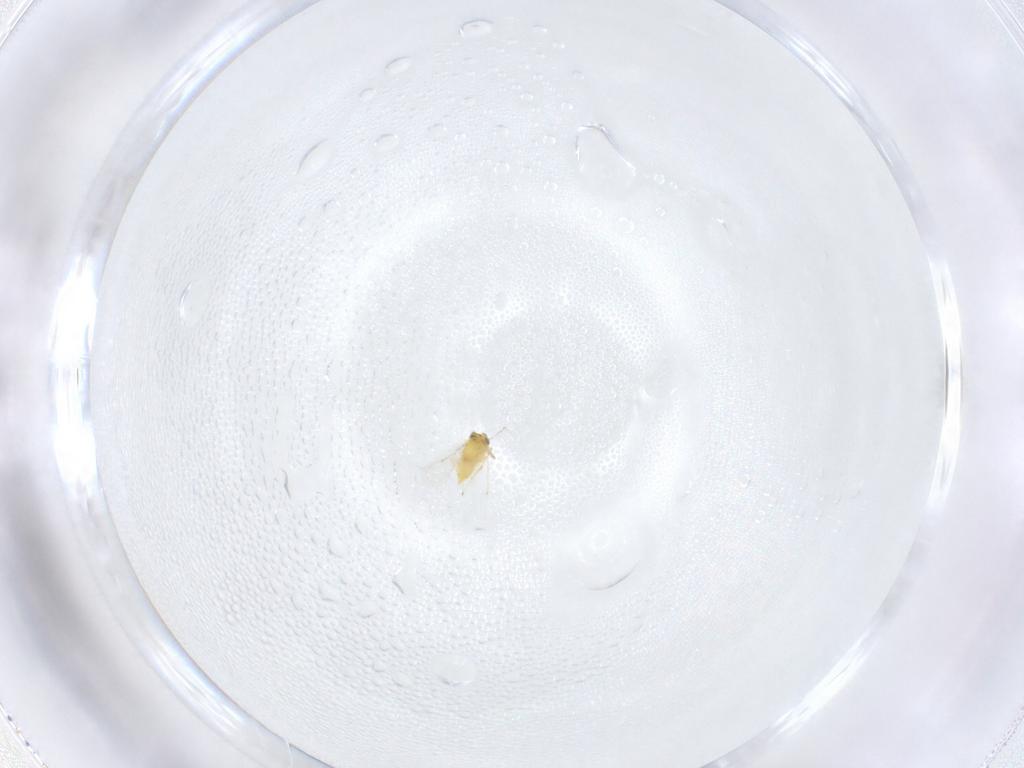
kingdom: Animalia
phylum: Arthropoda
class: Insecta
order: Hymenoptera
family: Aphelinidae
